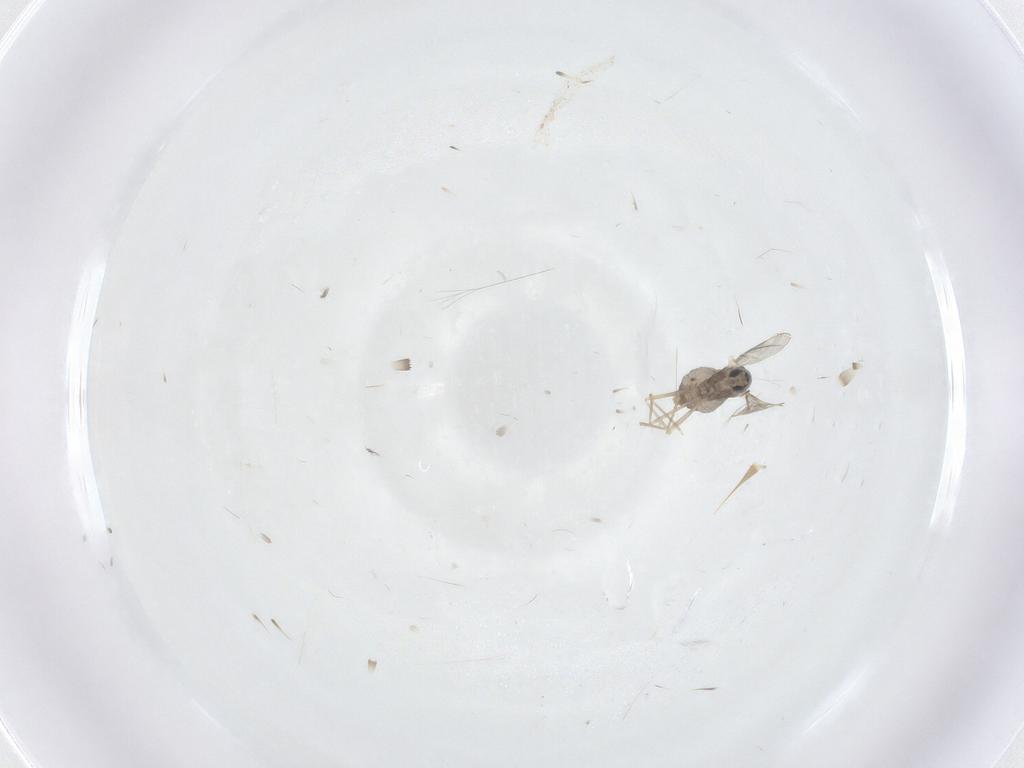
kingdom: Animalia
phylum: Arthropoda
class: Insecta
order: Diptera
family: Cecidomyiidae
